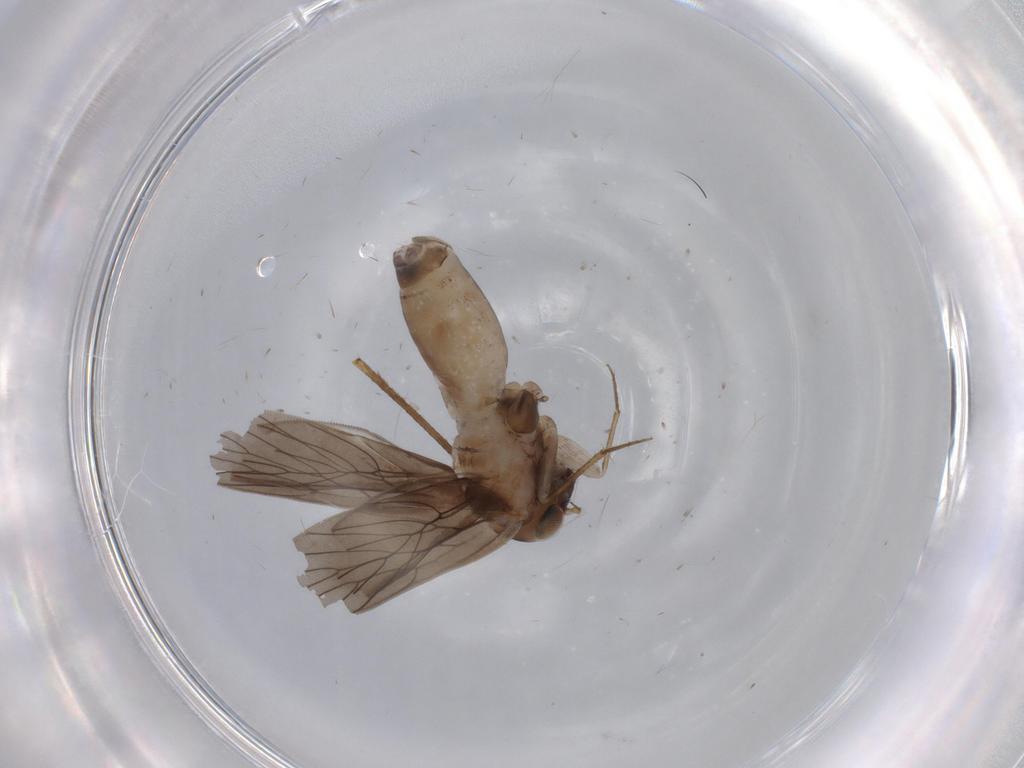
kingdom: Animalia
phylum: Arthropoda
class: Insecta
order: Psocodea
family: Lepidopsocidae
